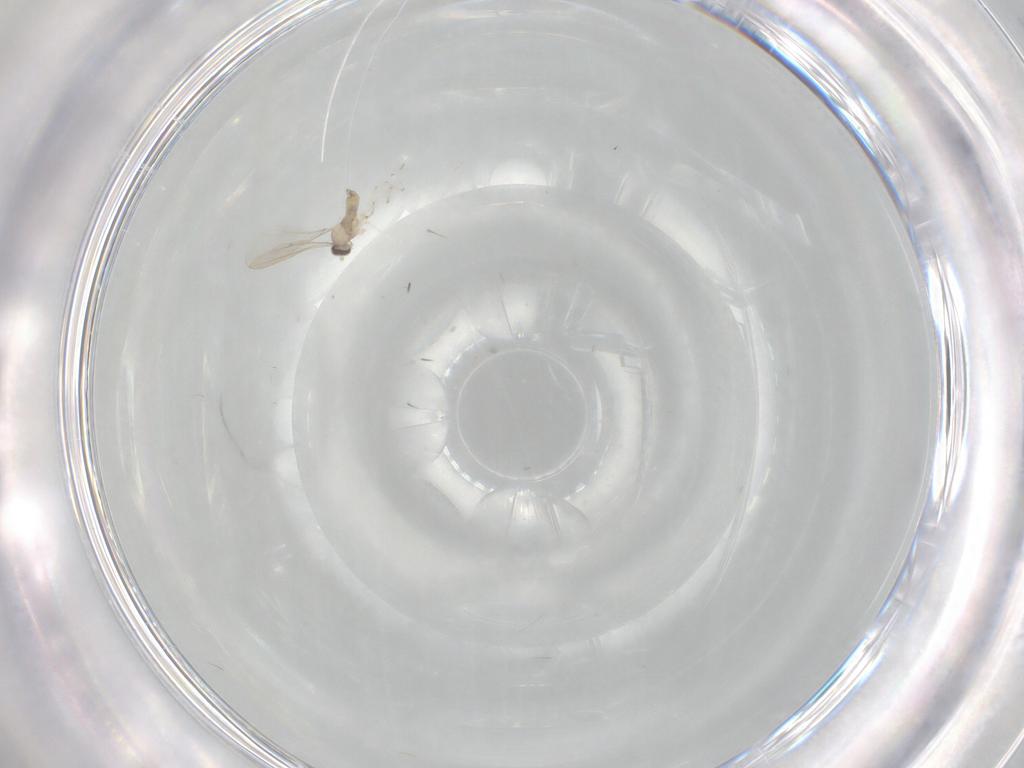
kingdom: Animalia
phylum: Arthropoda
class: Insecta
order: Diptera
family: Cecidomyiidae
